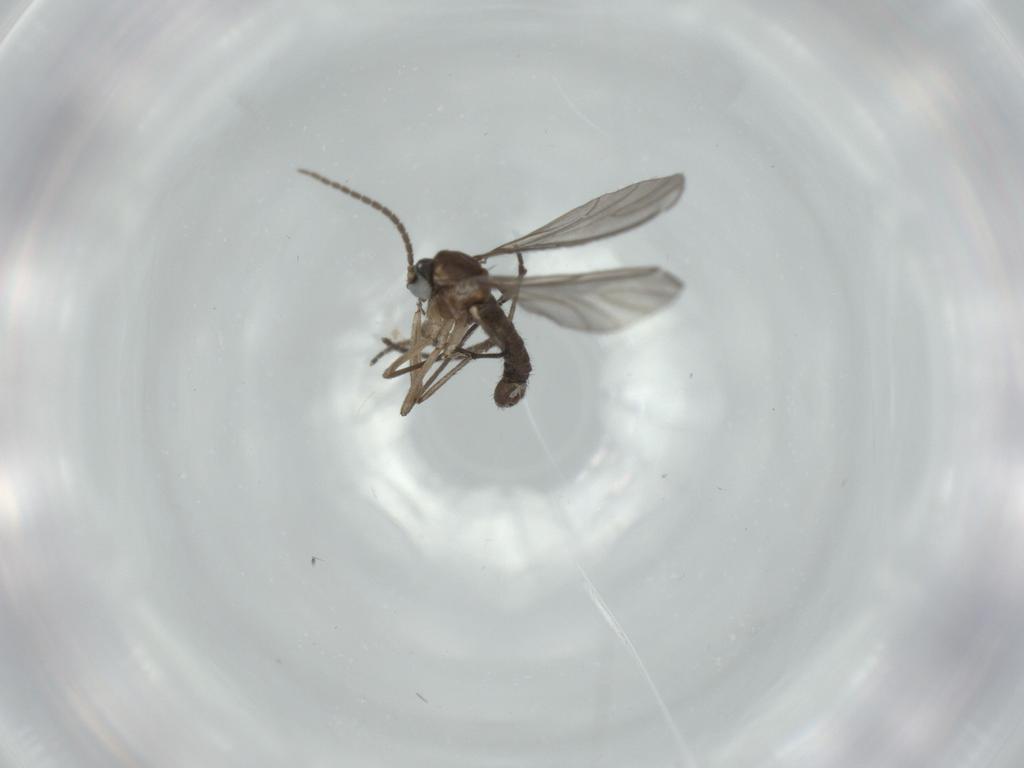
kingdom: Animalia
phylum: Arthropoda
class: Insecta
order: Diptera
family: Sciaridae
